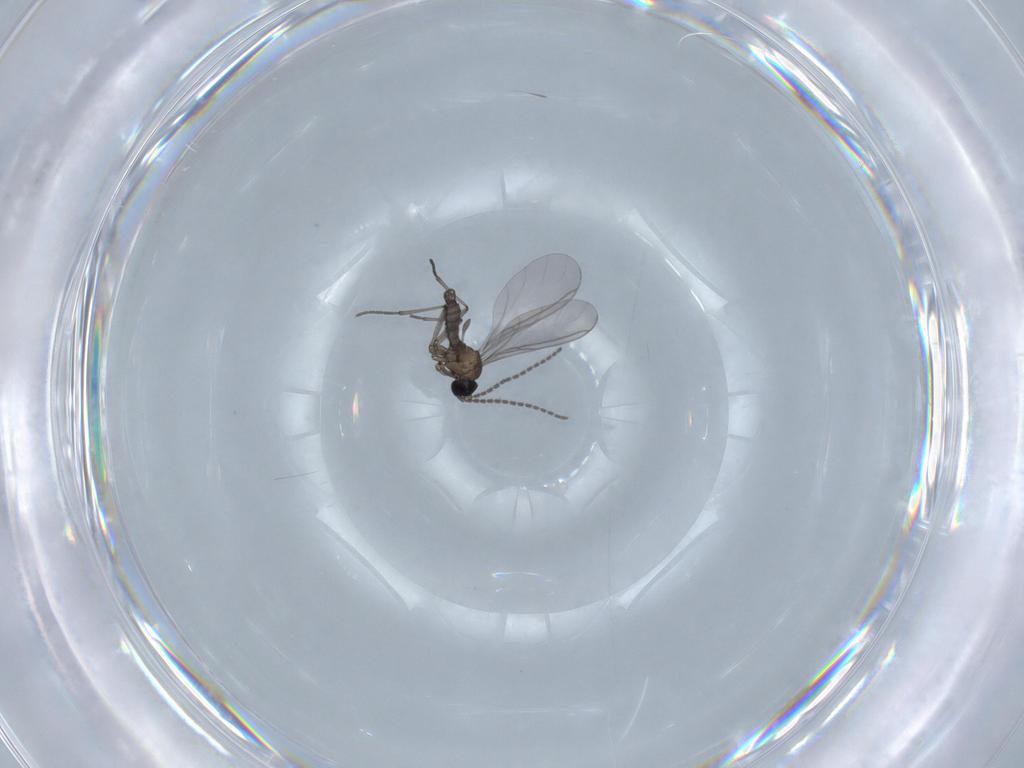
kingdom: Animalia
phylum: Arthropoda
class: Insecta
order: Diptera
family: Sciaridae
